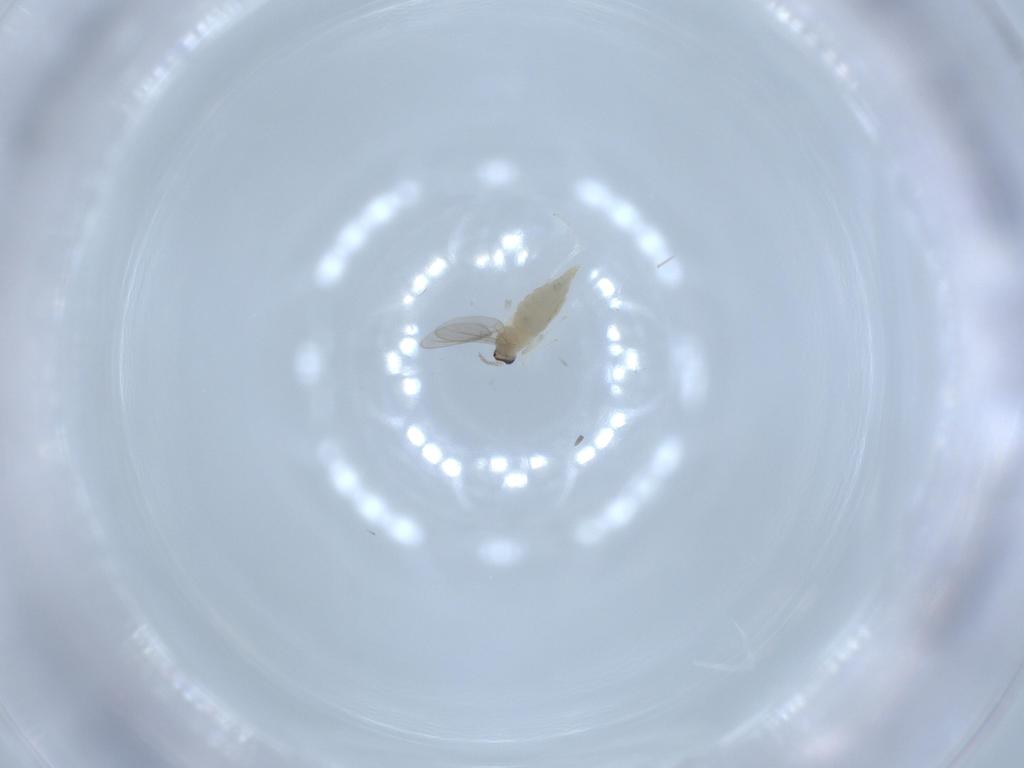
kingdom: Animalia
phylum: Arthropoda
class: Insecta
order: Diptera
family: Cecidomyiidae
